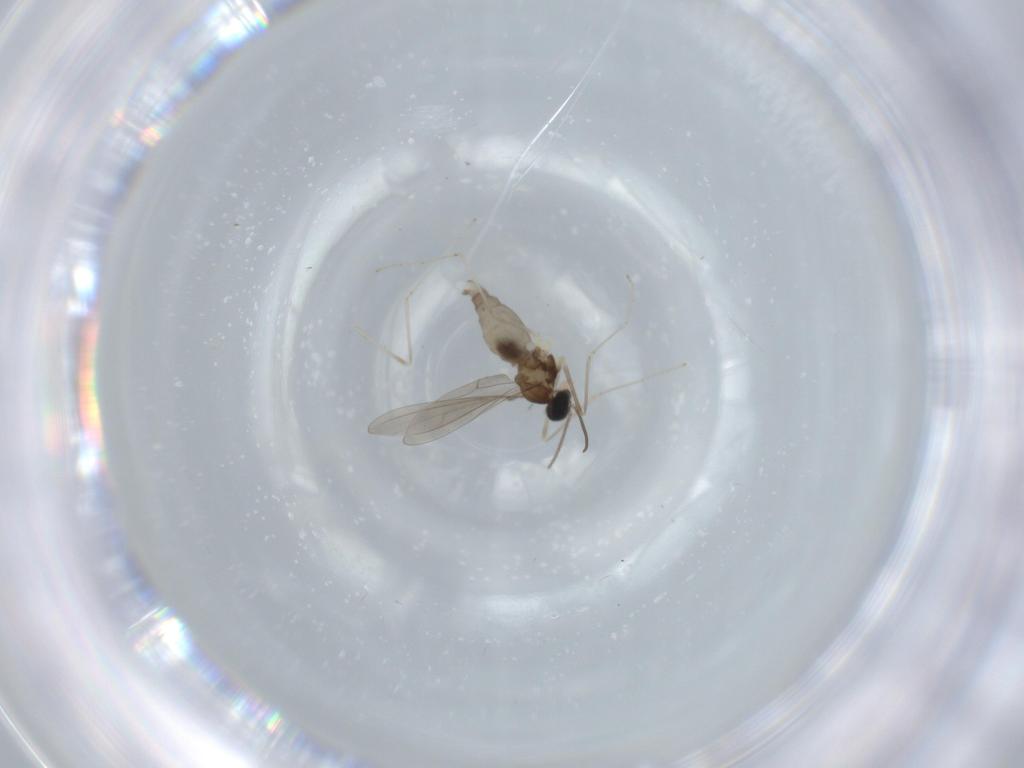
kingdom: Animalia
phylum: Arthropoda
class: Insecta
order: Diptera
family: Cecidomyiidae
